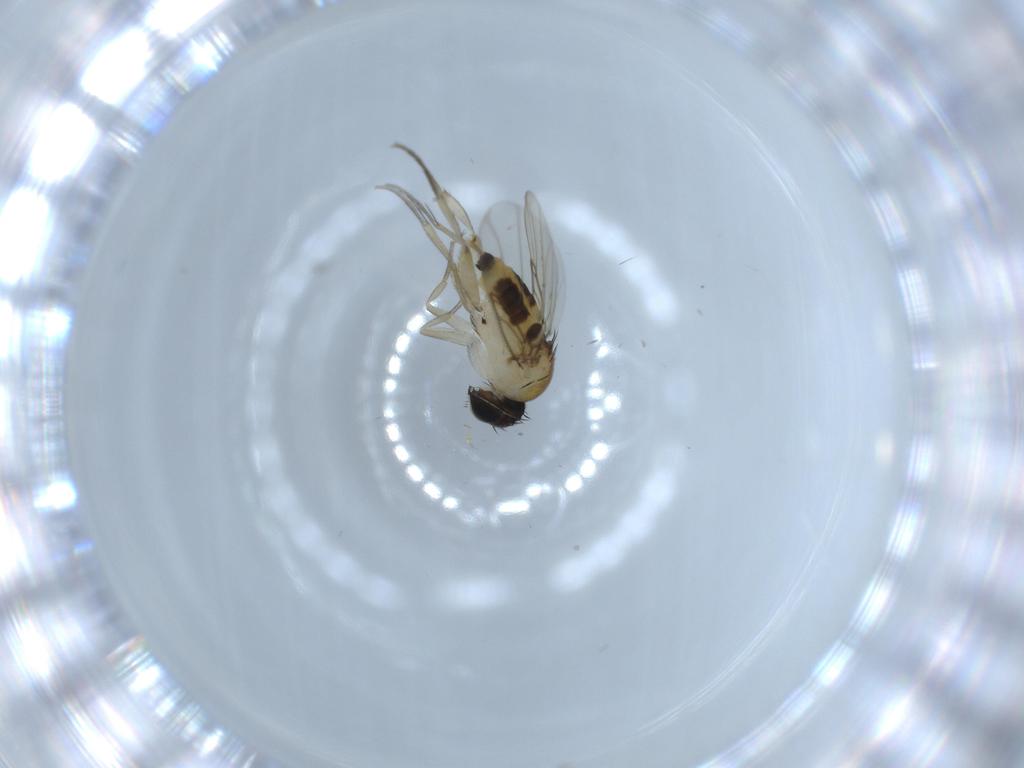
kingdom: Animalia
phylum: Arthropoda
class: Insecta
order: Diptera
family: Phoridae
